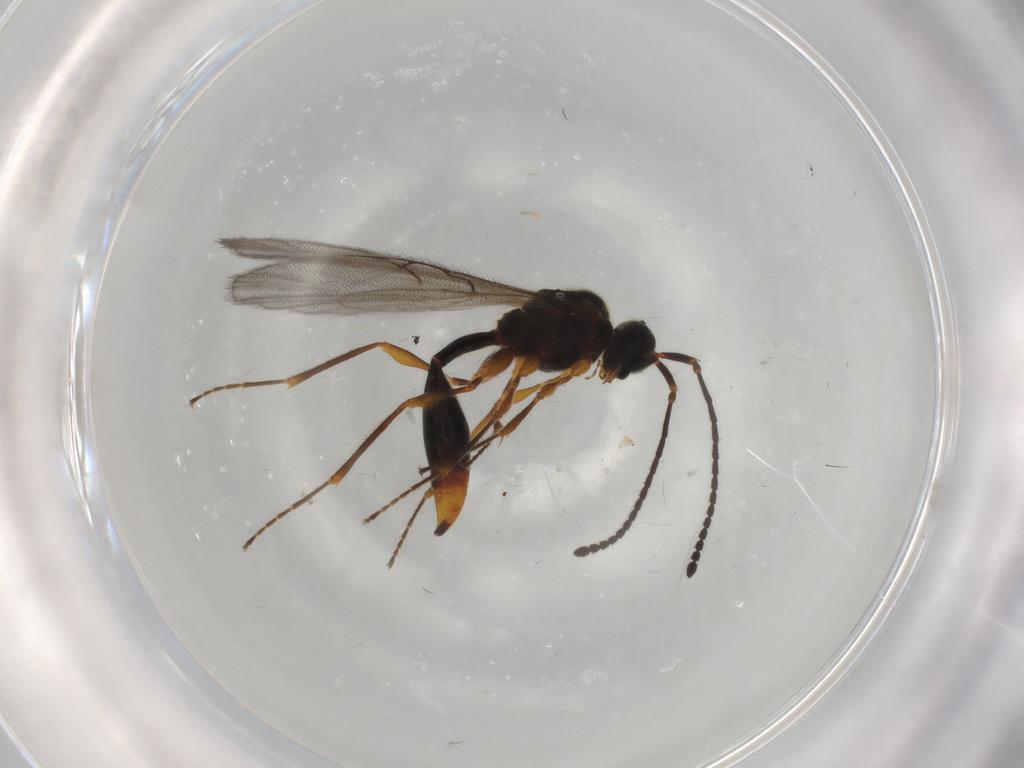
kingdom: Animalia
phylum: Arthropoda
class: Insecta
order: Hymenoptera
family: Diapriidae
